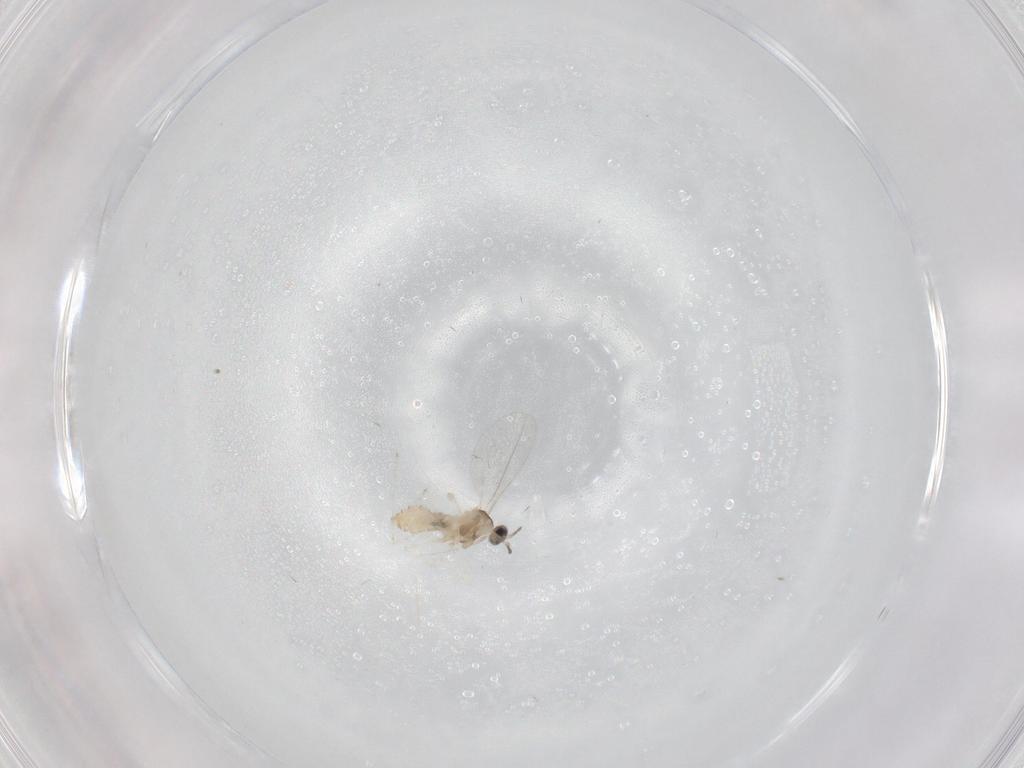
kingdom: Animalia
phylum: Arthropoda
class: Insecta
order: Diptera
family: Cecidomyiidae
